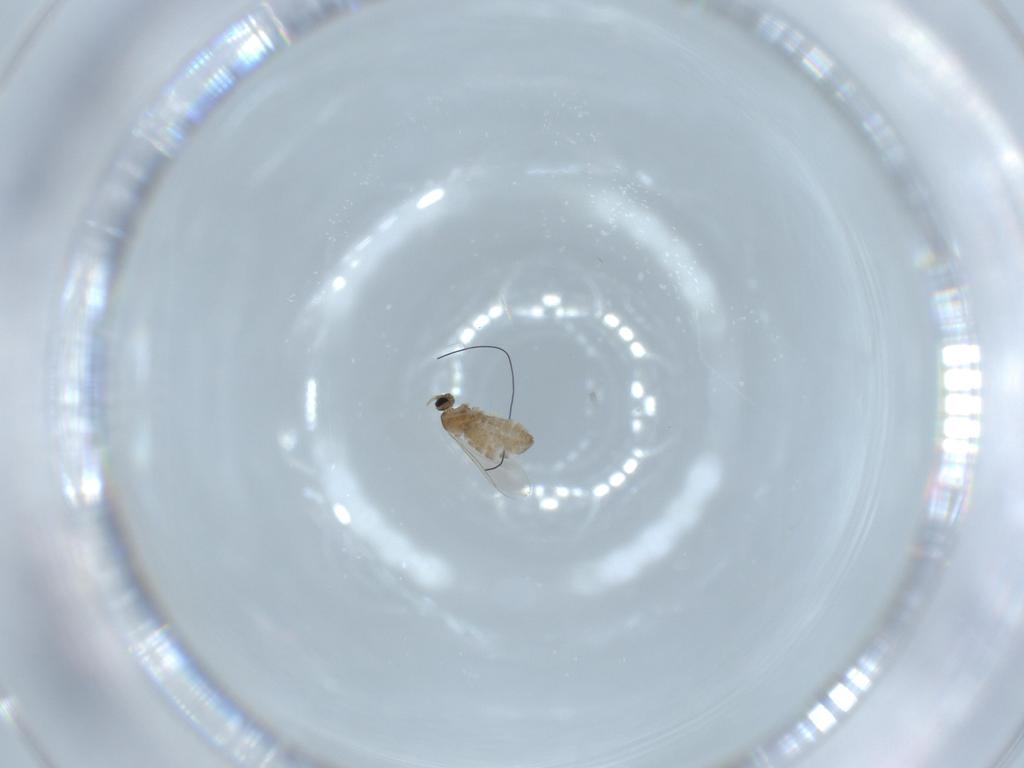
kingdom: Animalia
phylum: Arthropoda
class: Insecta
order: Diptera
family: Cecidomyiidae
